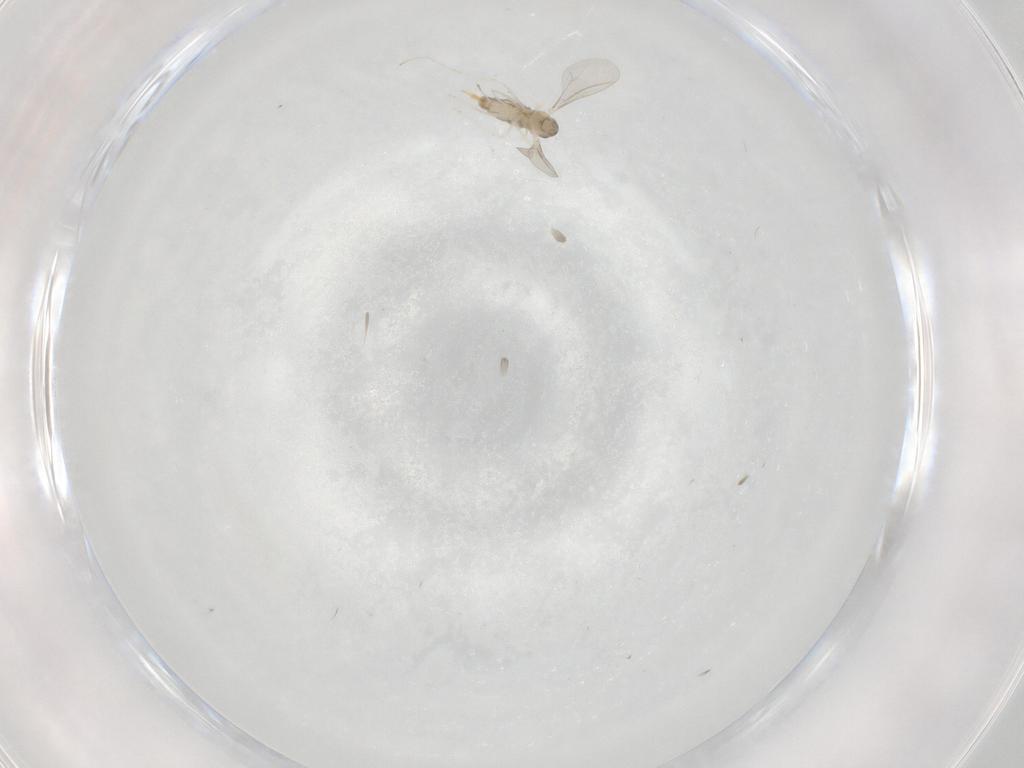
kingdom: Animalia
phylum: Arthropoda
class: Insecta
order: Diptera
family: Cecidomyiidae
